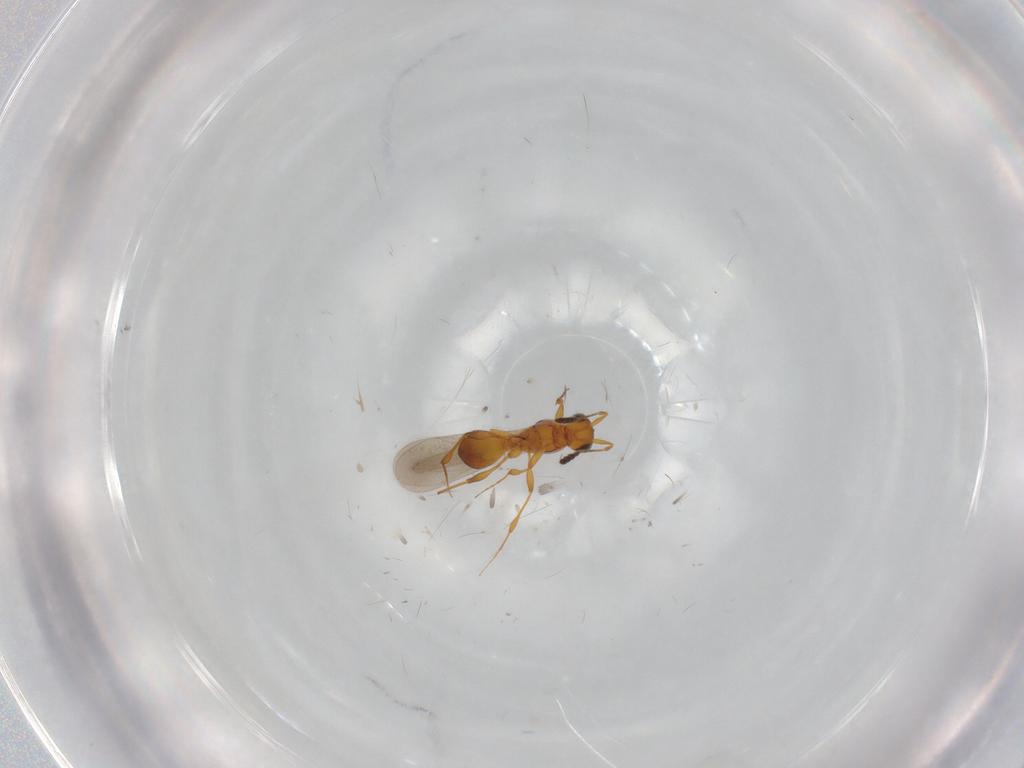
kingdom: Animalia
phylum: Arthropoda
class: Insecta
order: Hymenoptera
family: Platygastridae
